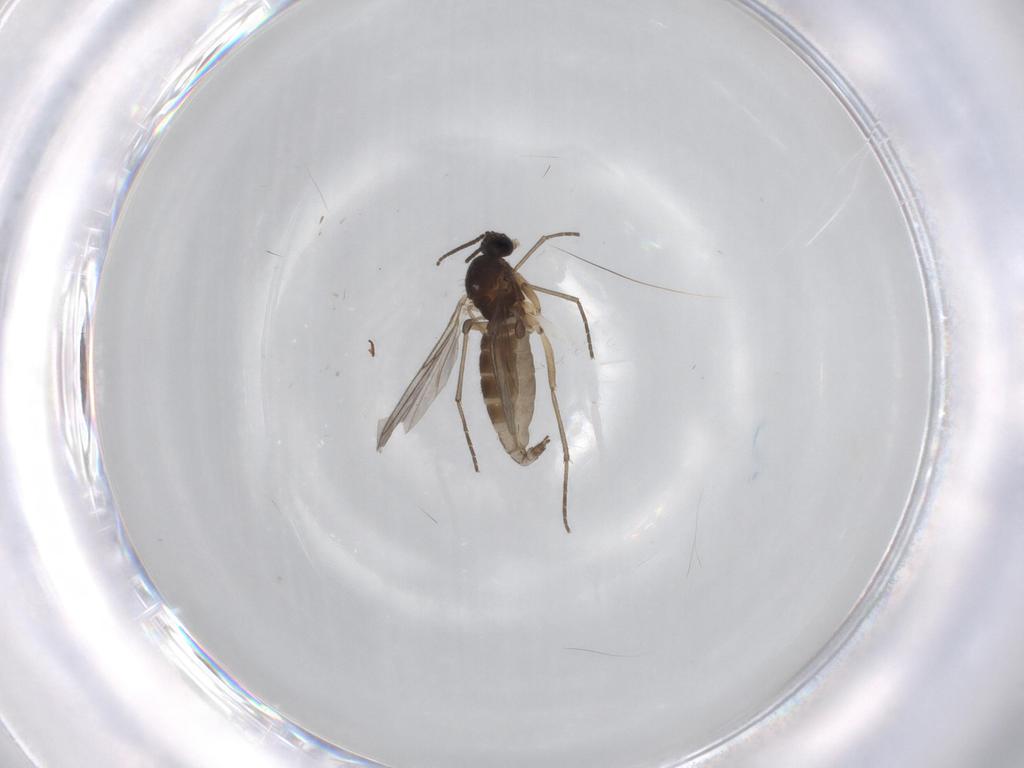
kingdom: Animalia
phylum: Arthropoda
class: Insecta
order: Diptera
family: Sciaridae
